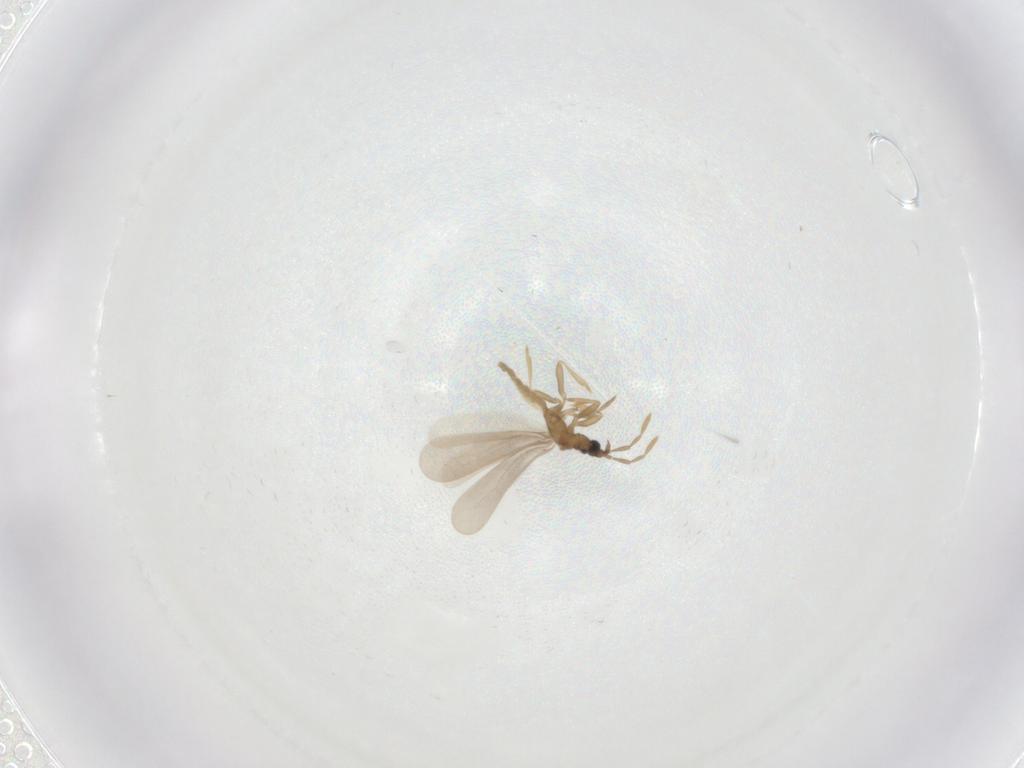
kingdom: Animalia
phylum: Arthropoda
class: Insecta
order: Hemiptera
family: Enicocephalidae
